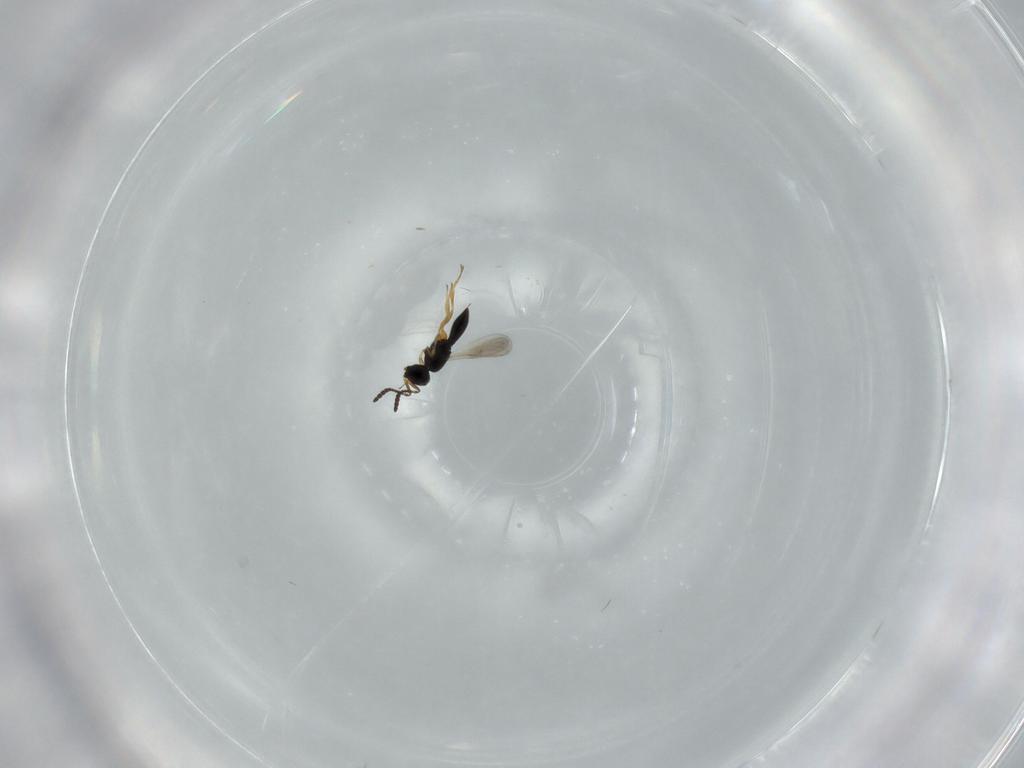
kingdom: Animalia
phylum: Arthropoda
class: Insecta
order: Hymenoptera
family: Scelionidae
